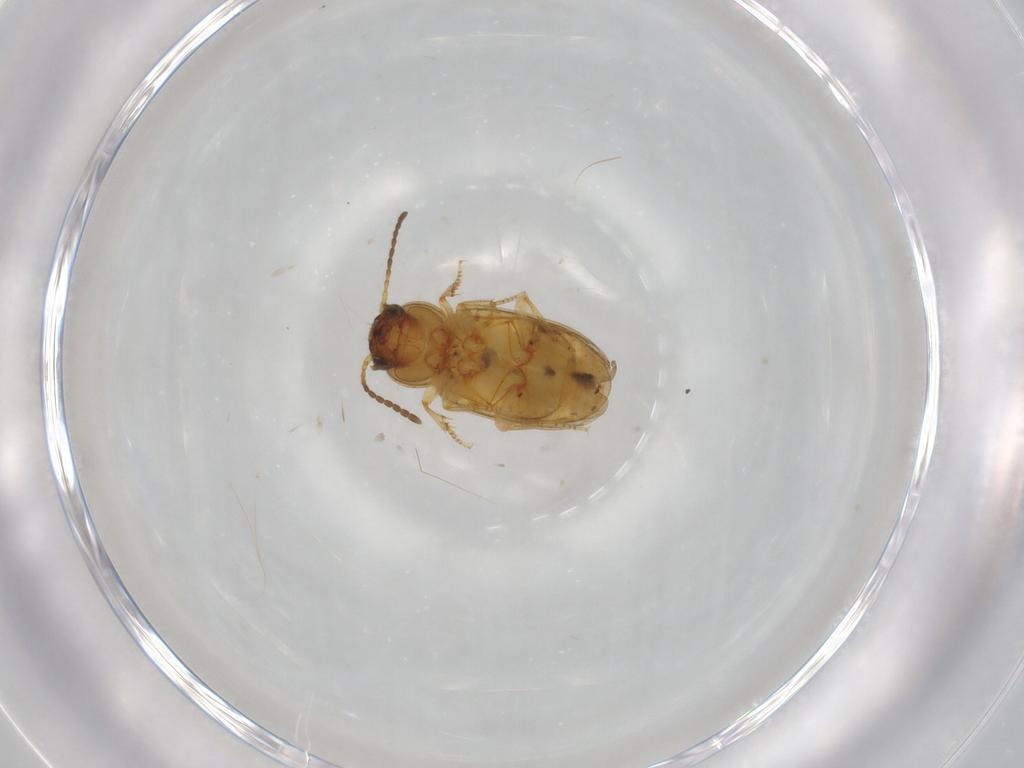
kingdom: Animalia
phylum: Arthropoda
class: Insecta
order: Coleoptera
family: Carabidae
